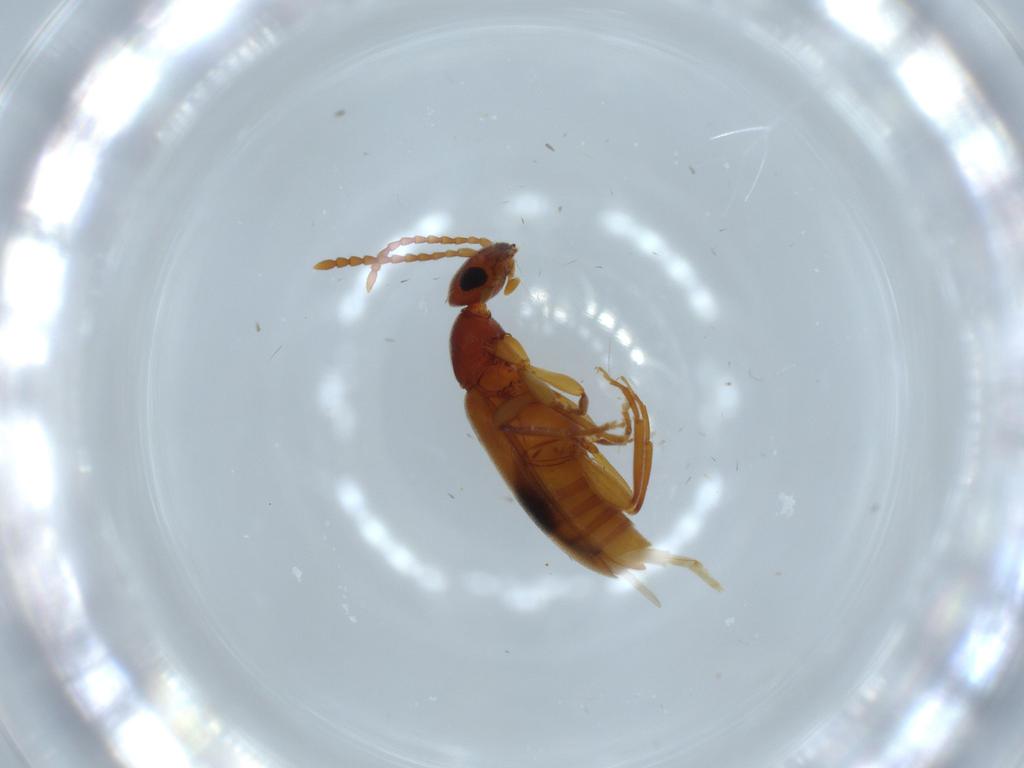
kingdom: Animalia
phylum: Arthropoda
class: Insecta
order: Coleoptera
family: Anthicidae
